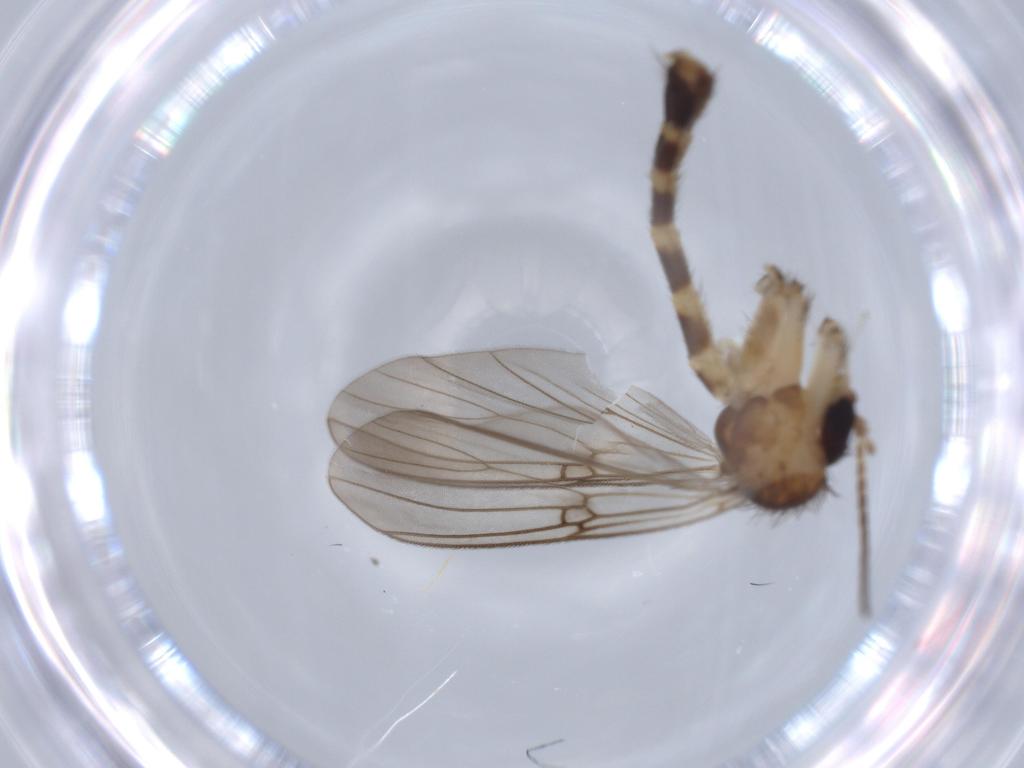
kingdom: Animalia
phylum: Arthropoda
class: Insecta
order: Diptera
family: Mycetophilidae
